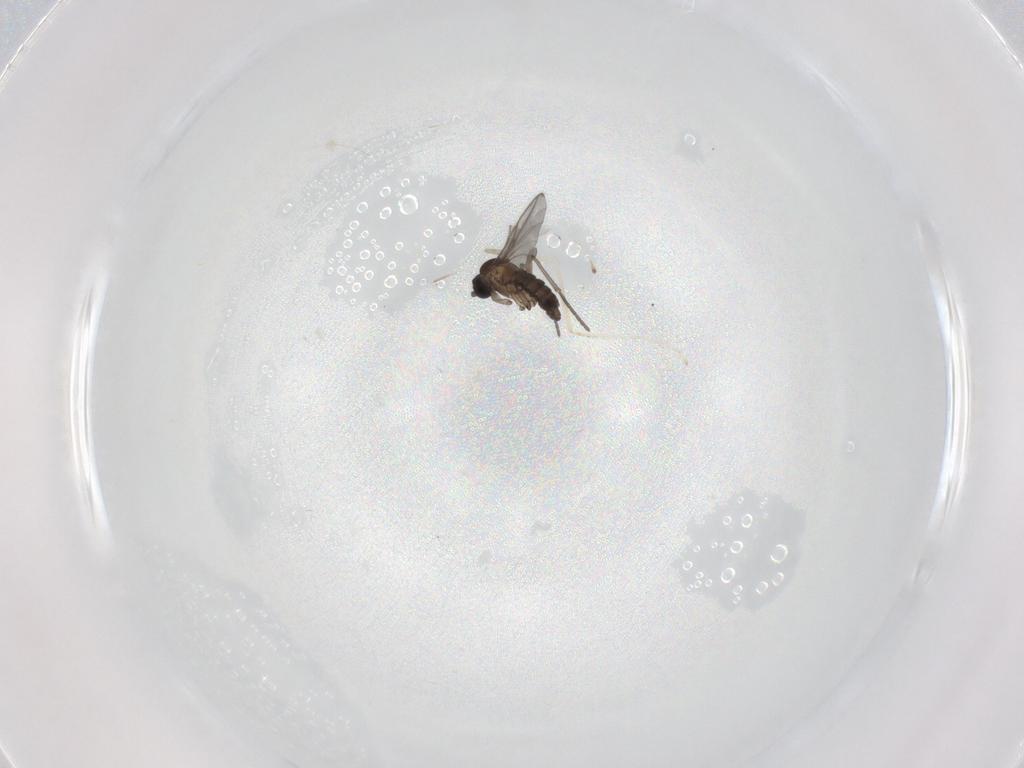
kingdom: Animalia
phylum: Arthropoda
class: Insecta
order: Diptera
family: Cecidomyiidae
